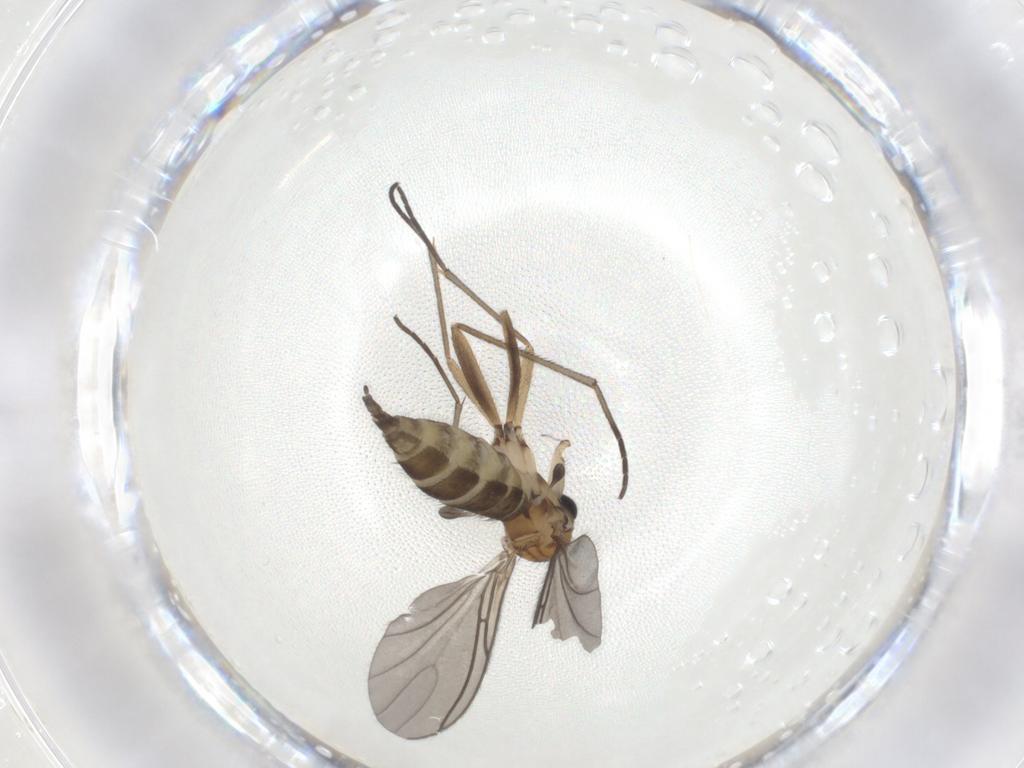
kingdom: Animalia
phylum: Arthropoda
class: Insecta
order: Diptera
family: Sciaridae
